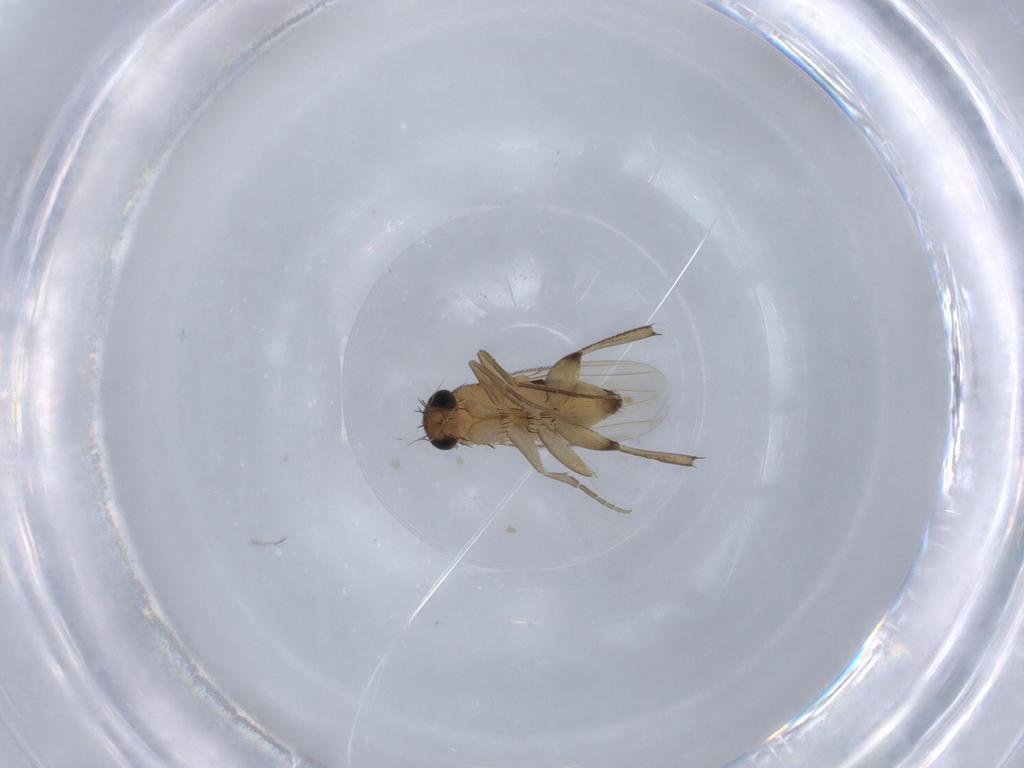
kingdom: Animalia
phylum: Arthropoda
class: Insecta
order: Diptera
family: Phoridae
